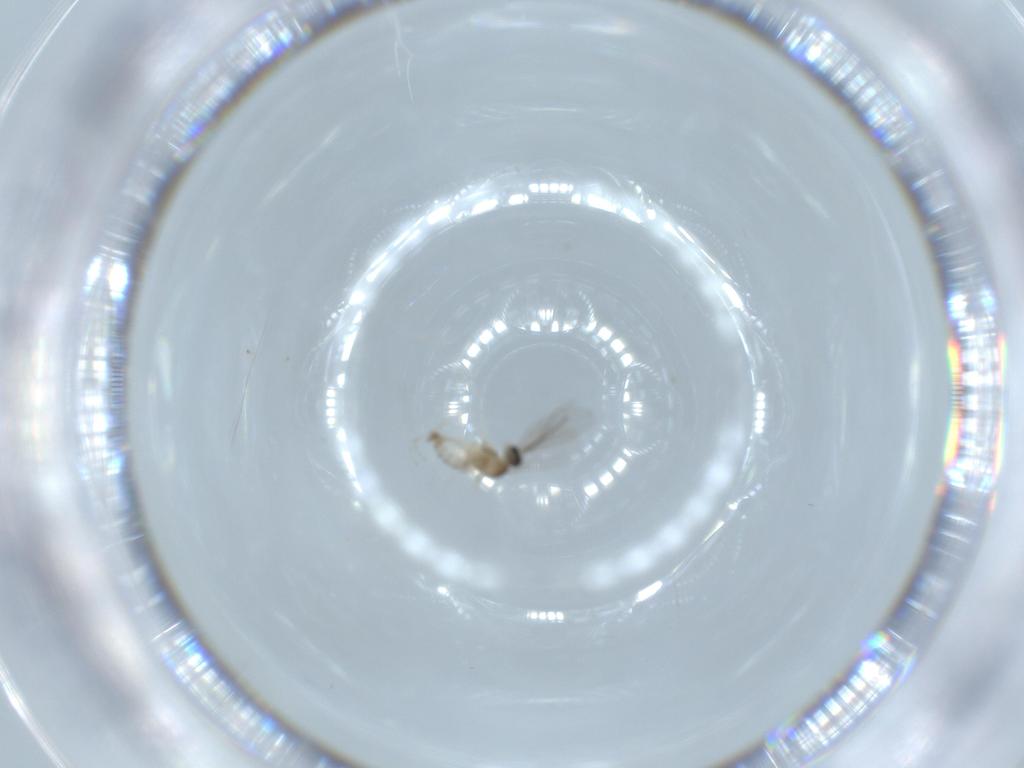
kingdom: Animalia
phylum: Arthropoda
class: Insecta
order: Diptera
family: Cecidomyiidae
